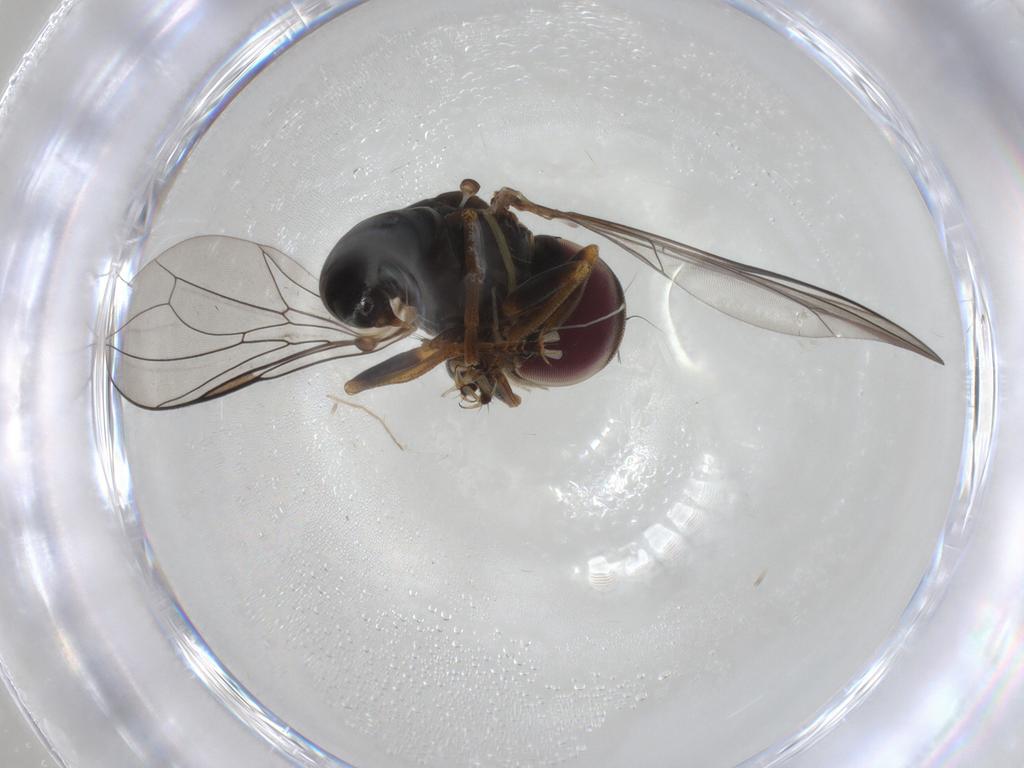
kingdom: Animalia
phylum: Arthropoda
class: Insecta
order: Diptera
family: Pipunculidae
